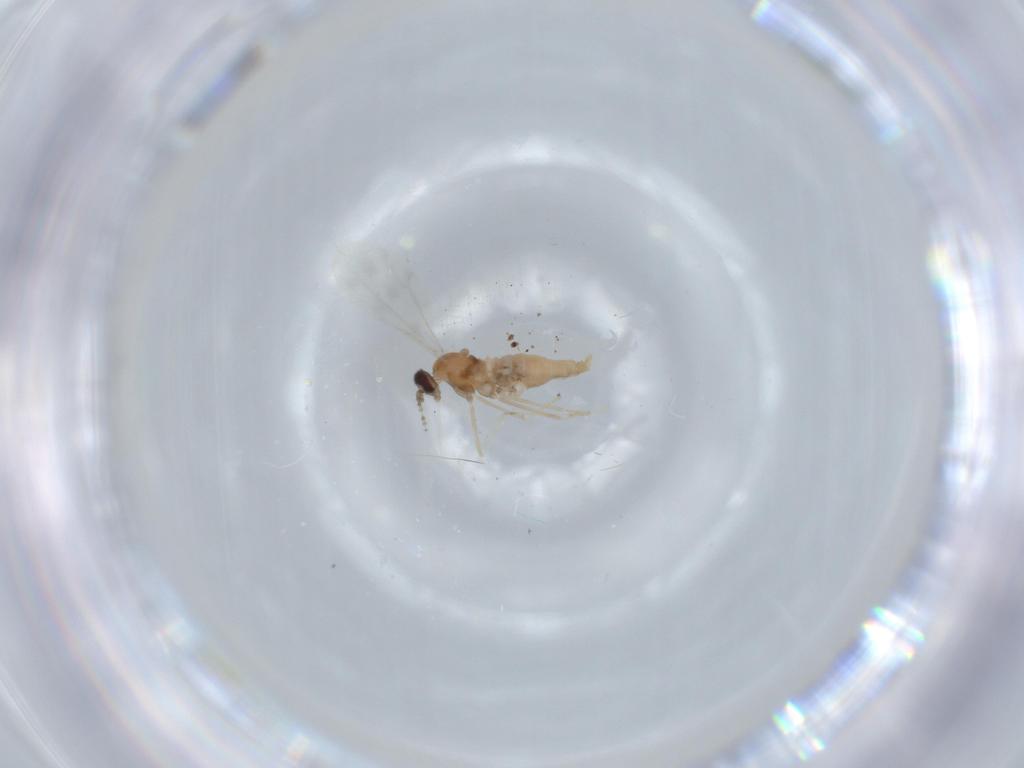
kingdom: Animalia
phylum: Arthropoda
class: Insecta
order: Diptera
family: Cecidomyiidae
